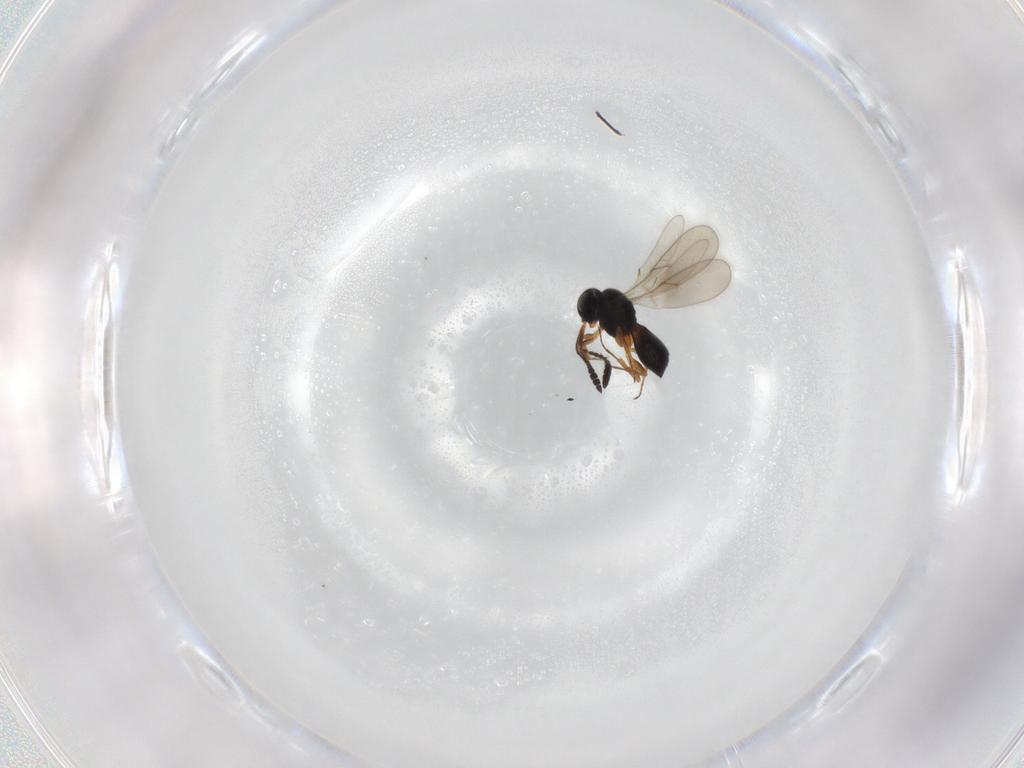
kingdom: Animalia
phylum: Arthropoda
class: Insecta
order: Hymenoptera
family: Scelionidae
